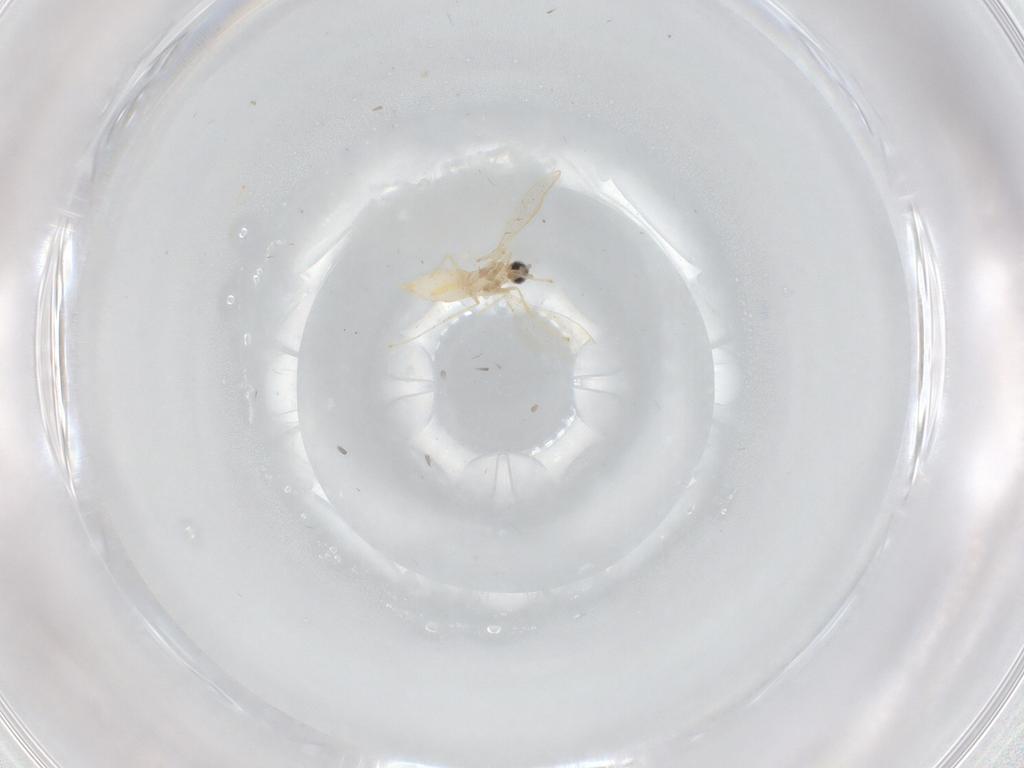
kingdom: Animalia
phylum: Arthropoda
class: Insecta
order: Diptera
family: Cecidomyiidae
